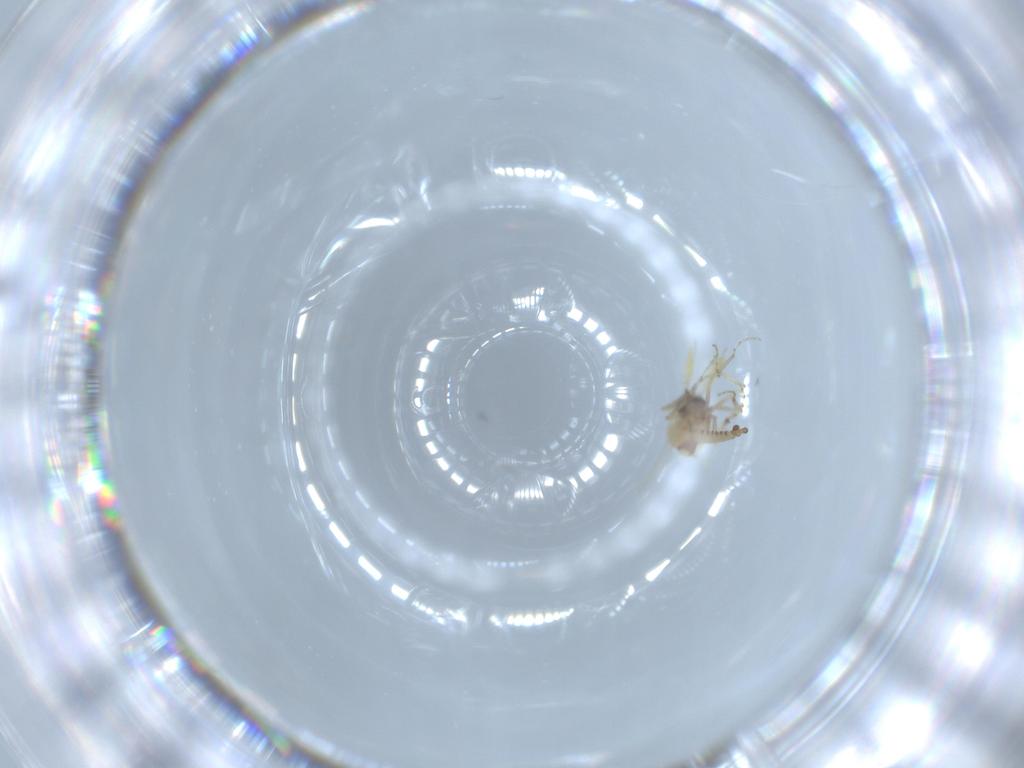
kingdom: Animalia
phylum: Arthropoda
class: Insecta
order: Diptera
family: Ceratopogonidae
